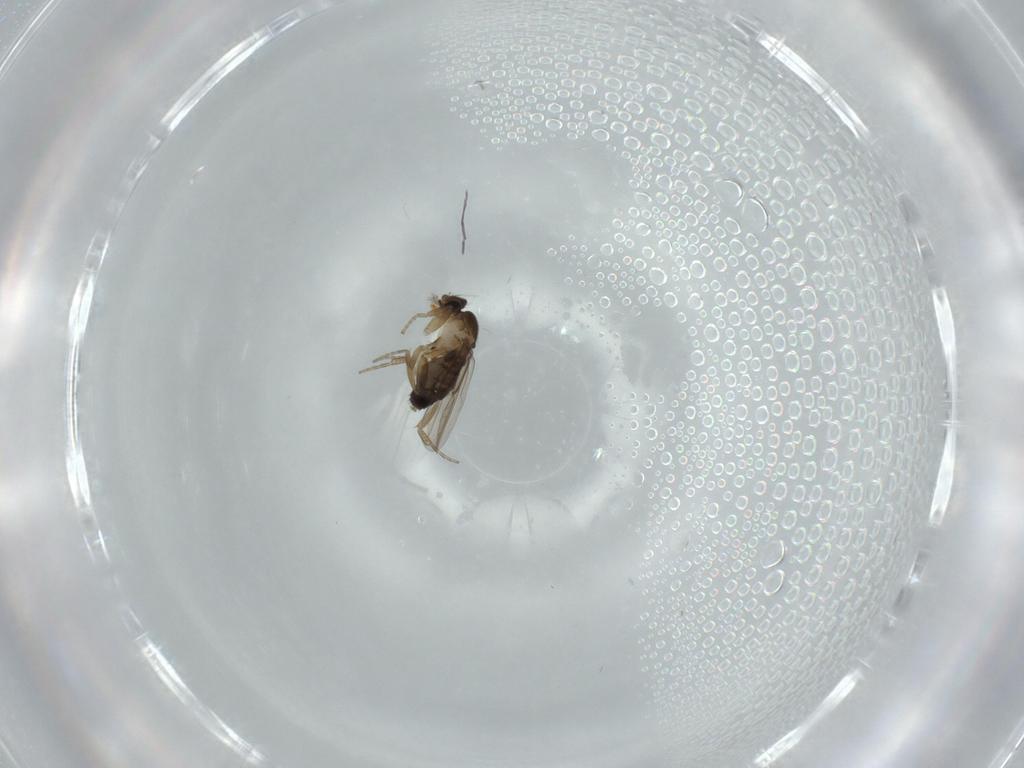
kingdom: Animalia
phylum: Arthropoda
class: Insecta
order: Diptera
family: Phoridae
